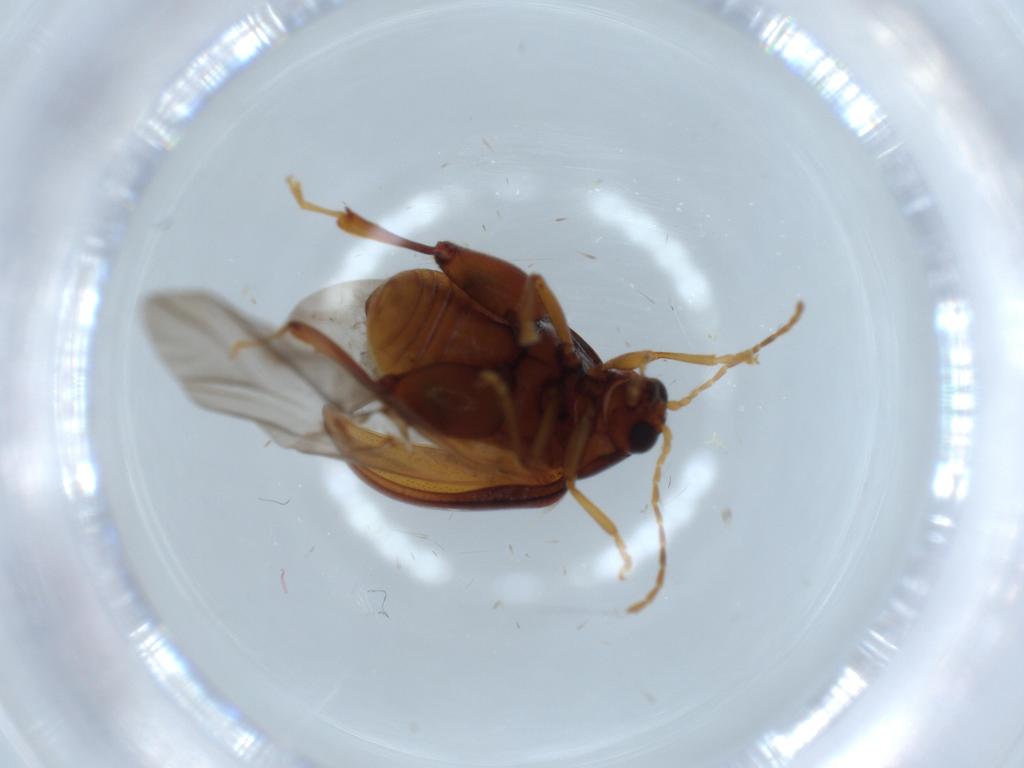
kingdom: Animalia
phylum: Arthropoda
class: Insecta
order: Coleoptera
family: Chrysomelidae
